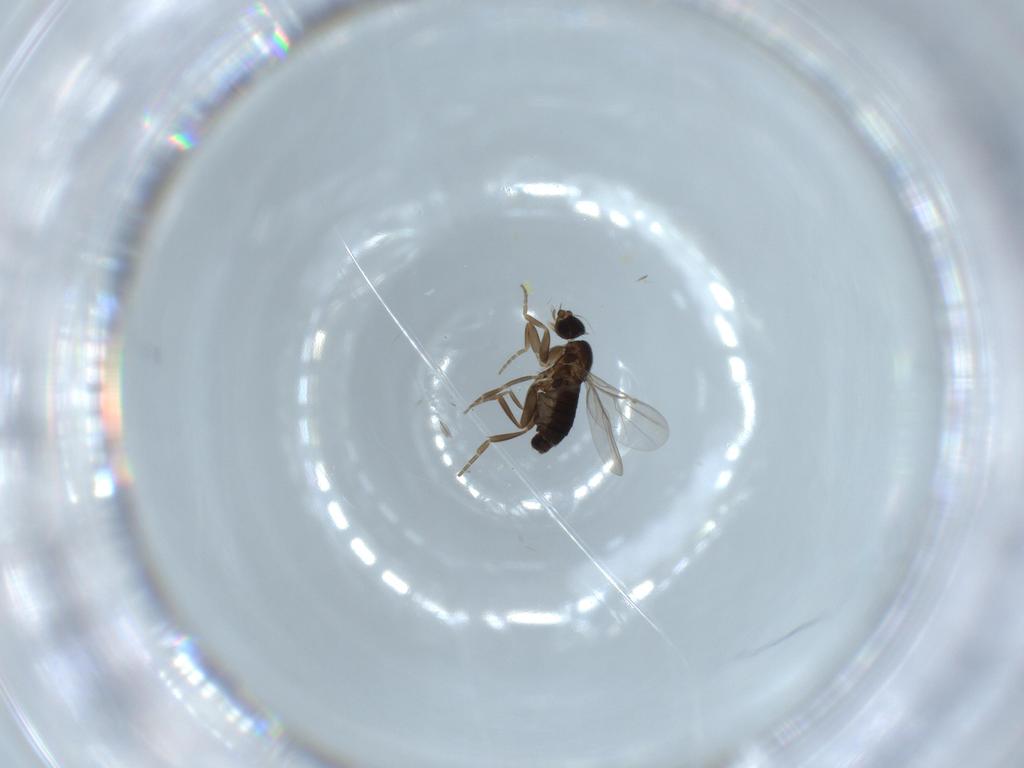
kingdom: Animalia
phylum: Arthropoda
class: Insecta
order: Diptera
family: Phoridae
